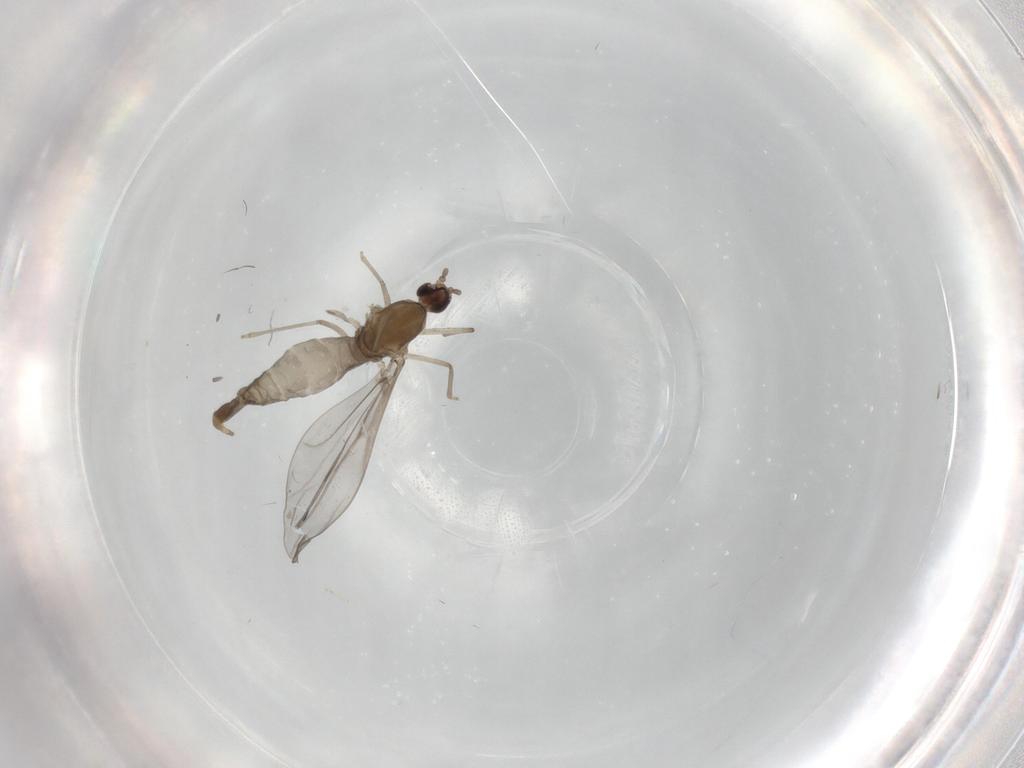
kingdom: Animalia
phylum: Arthropoda
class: Insecta
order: Diptera
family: Cecidomyiidae
